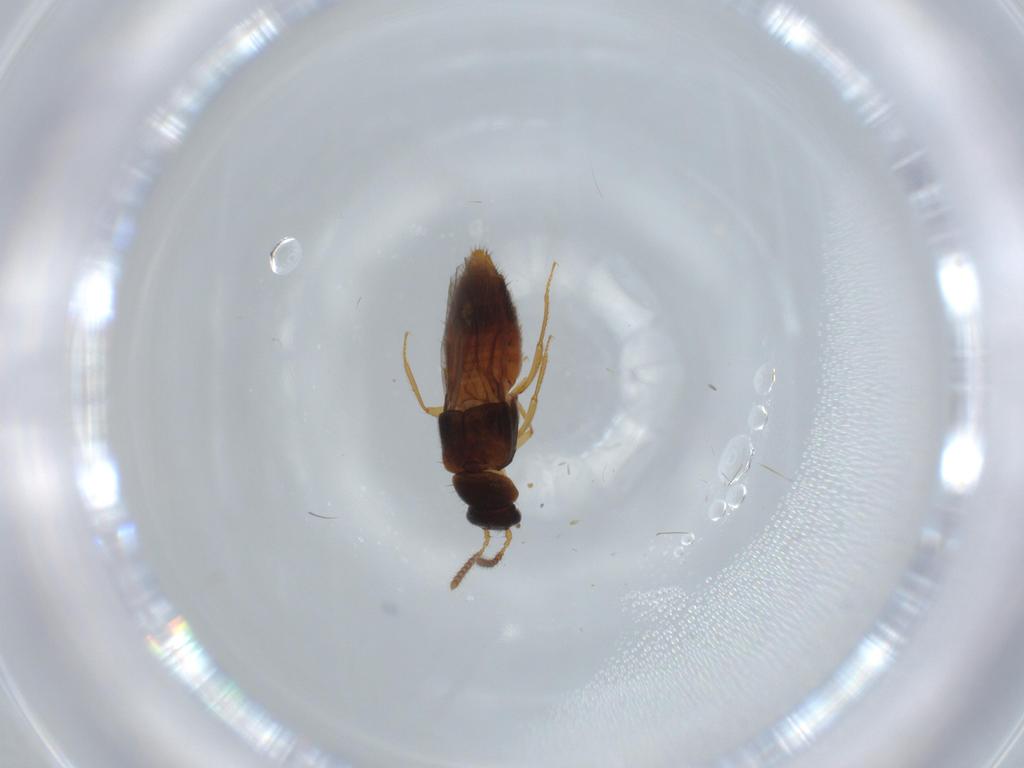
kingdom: Animalia
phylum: Arthropoda
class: Insecta
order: Coleoptera
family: Staphylinidae
